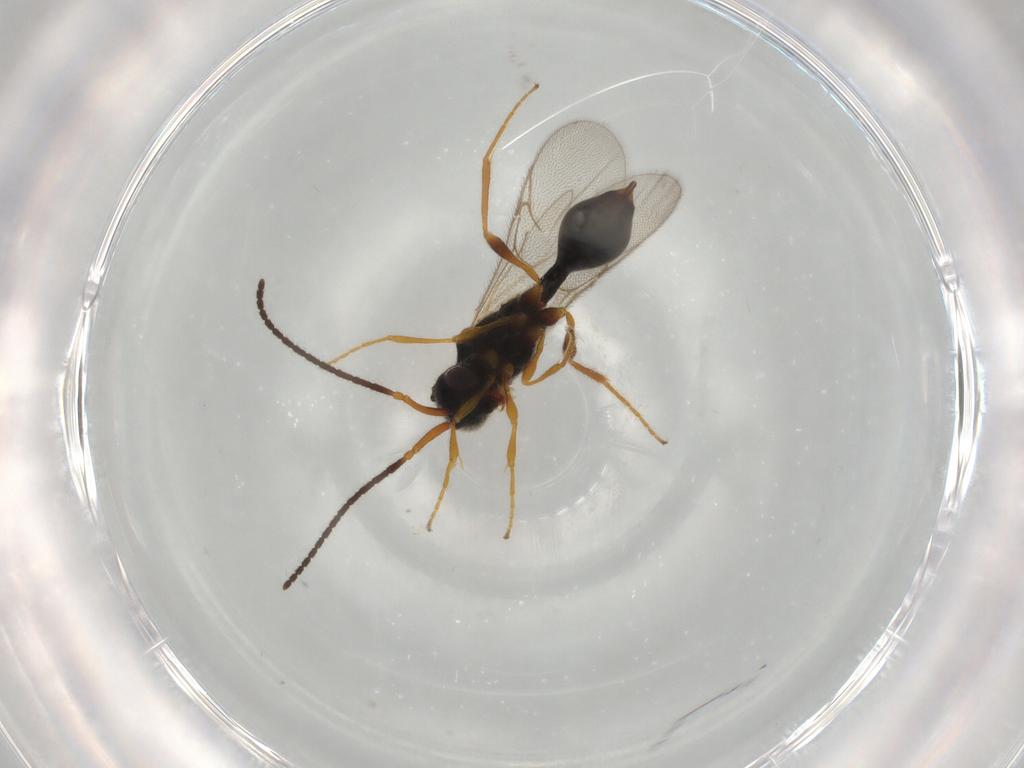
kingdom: Animalia
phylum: Arthropoda
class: Insecta
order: Hymenoptera
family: Diapriidae
